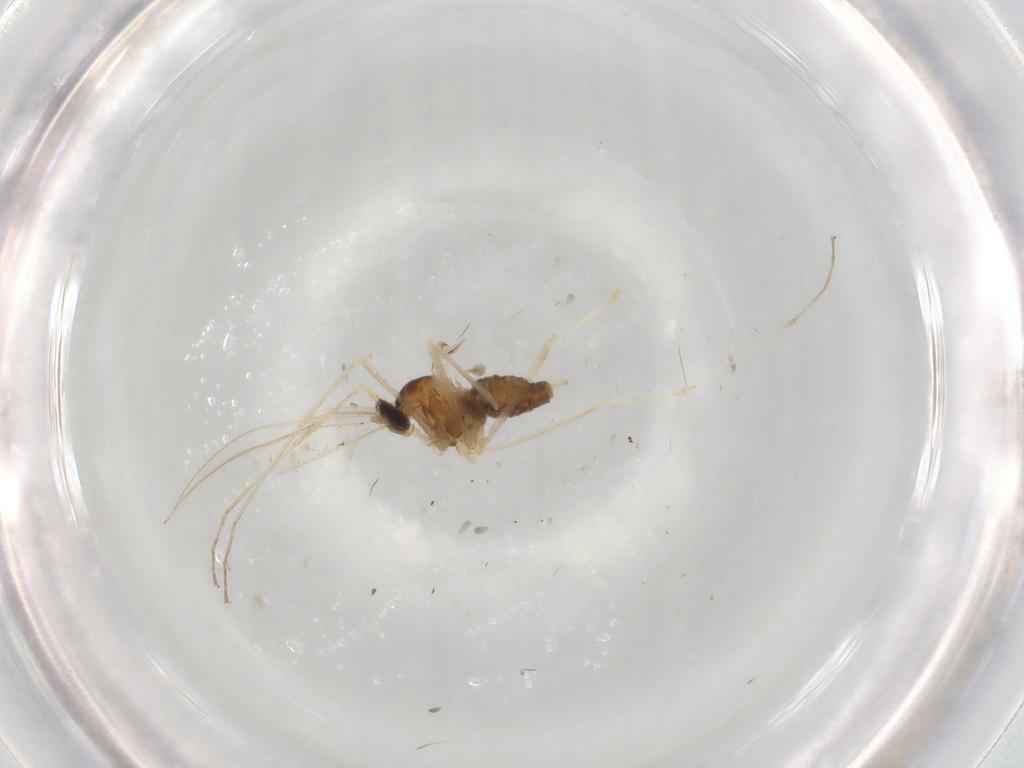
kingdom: Animalia
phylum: Arthropoda
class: Insecta
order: Diptera
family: Cecidomyiidae
